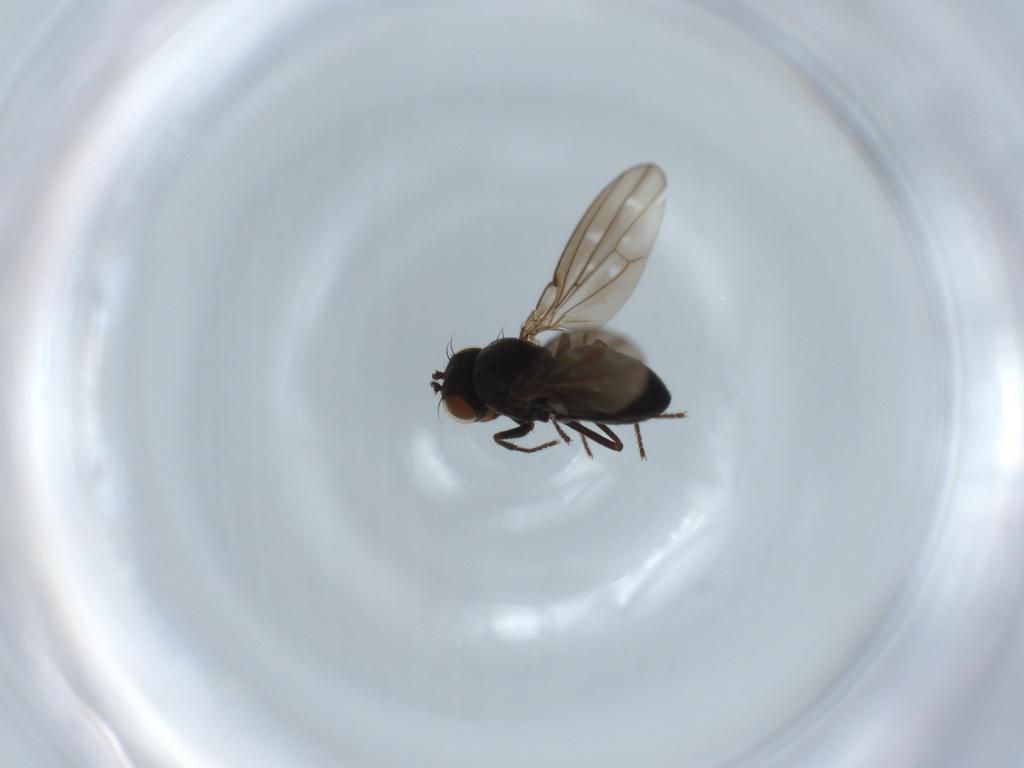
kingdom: Animalia
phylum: Arthropoda
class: Insecta
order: Diptera
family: Ephydridae
